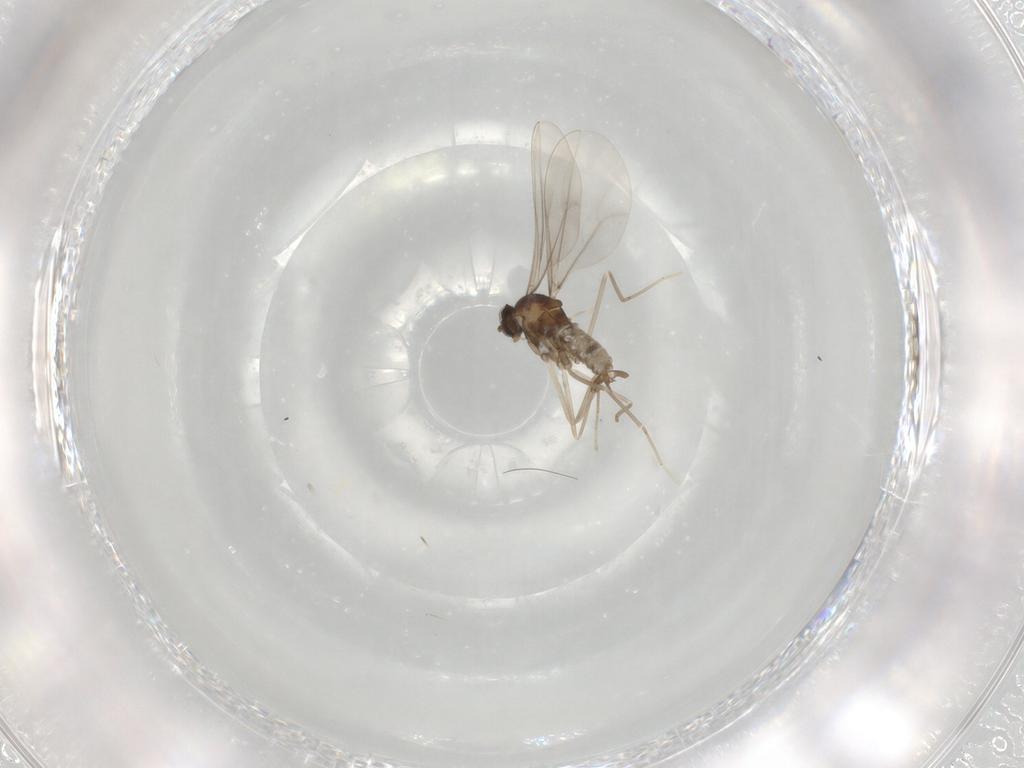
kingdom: Animalia
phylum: Arthropoda
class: Insecta
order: Diptera
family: Cecidomyiidae
